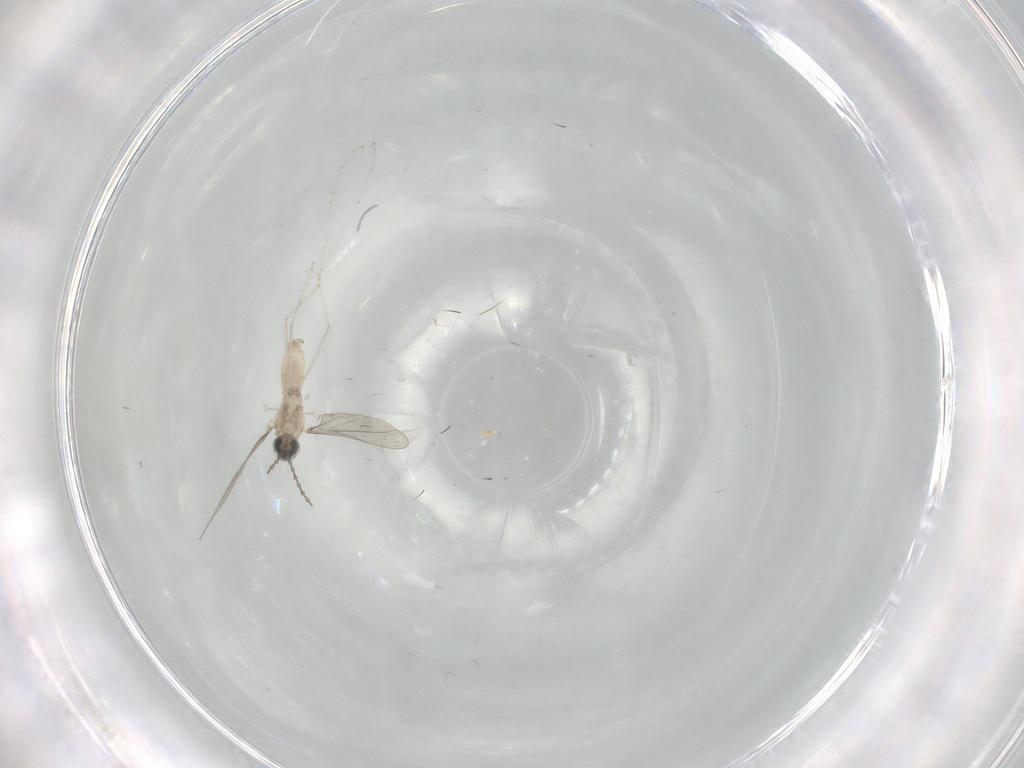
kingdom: Animalia
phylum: Arthropoda
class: Insecta
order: Diptera
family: Cecidomyiidae
